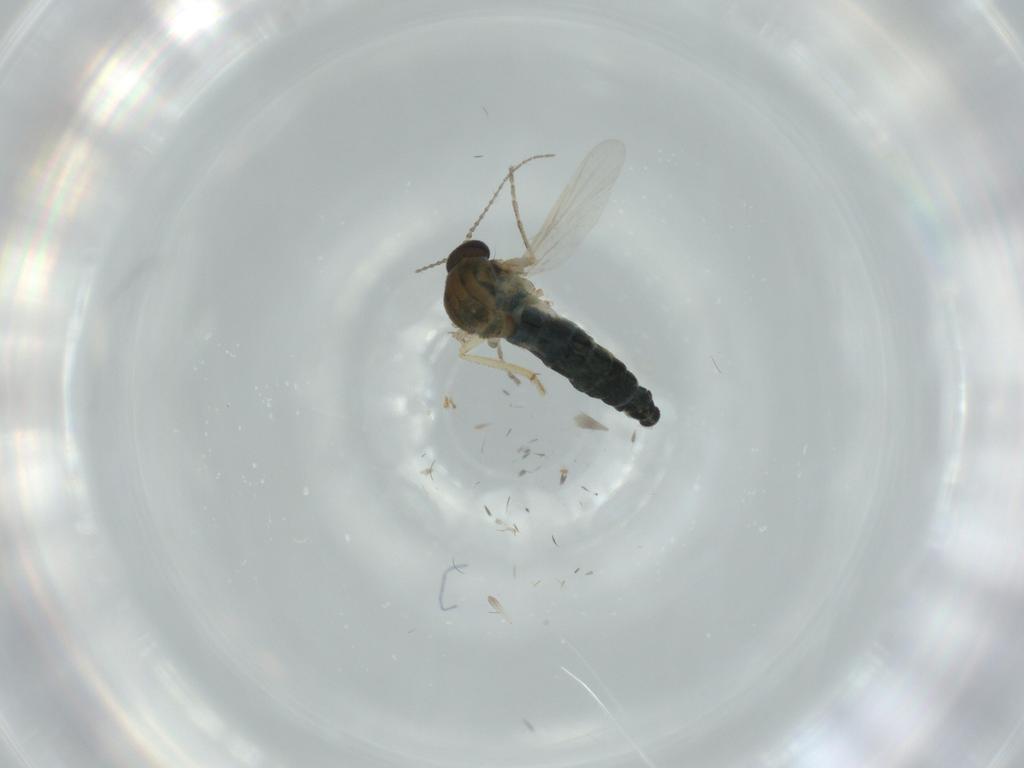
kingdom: Animalia
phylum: Arthropoda
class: Insecta
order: Diptera
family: Ceratopogonidae
